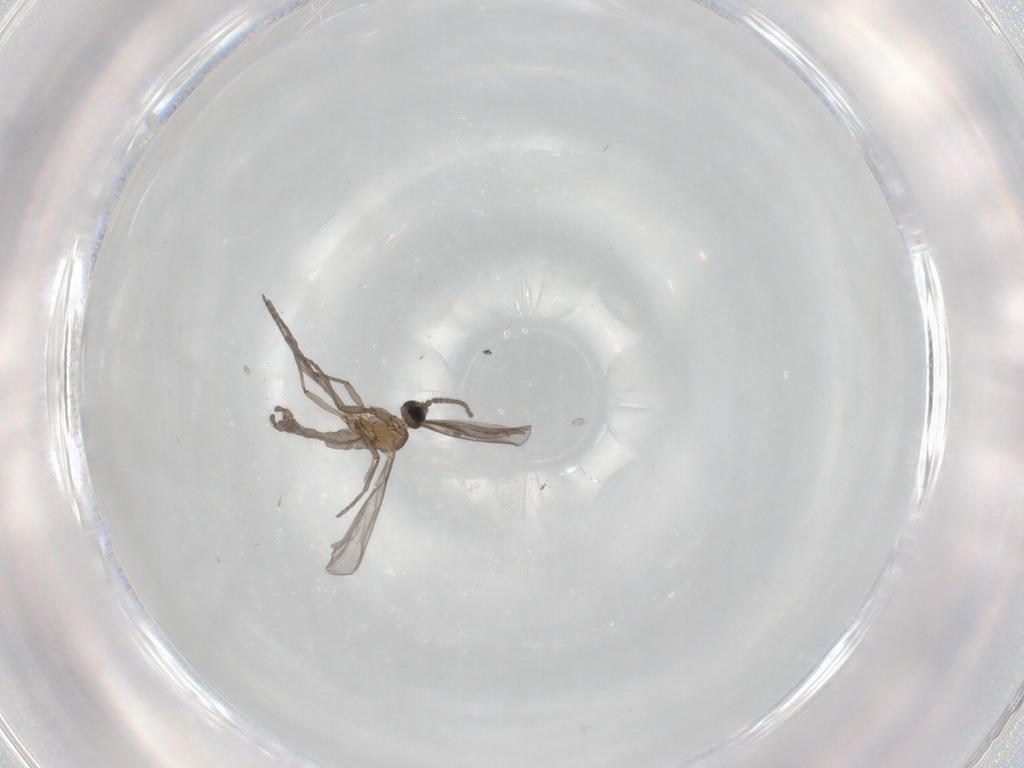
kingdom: Animalia
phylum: Arthropoda
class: Insecta
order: Diptera
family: Sciaridae
